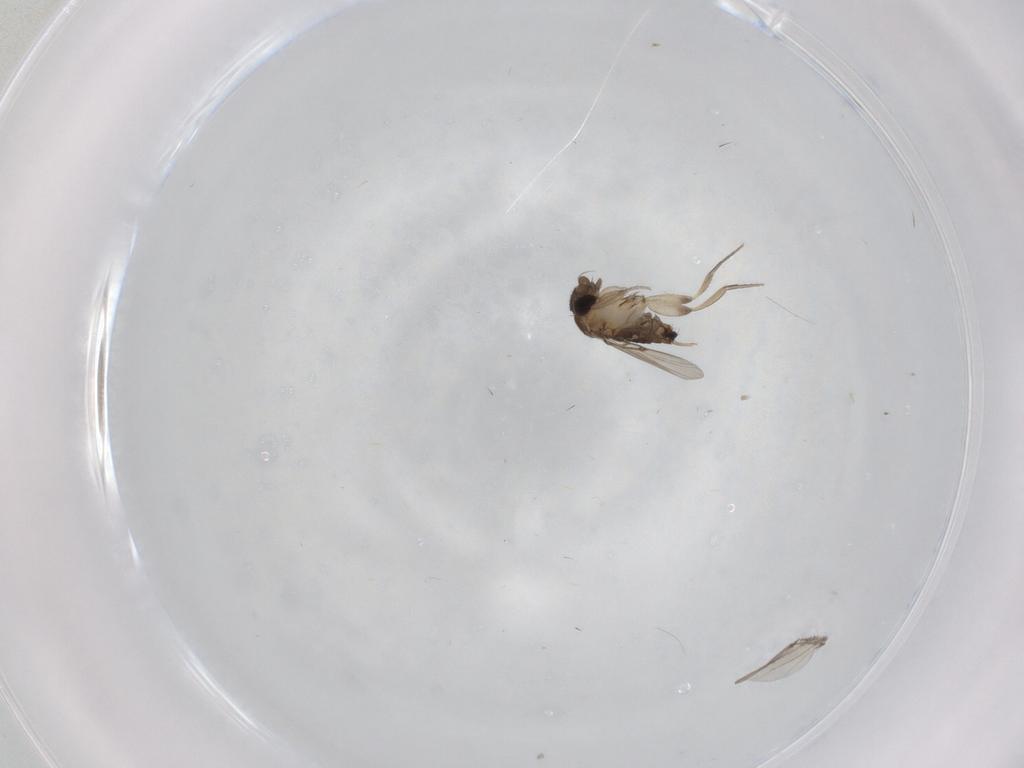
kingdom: Animalia
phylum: Arthropoda
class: Insecta
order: Diptera
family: Phoridae
